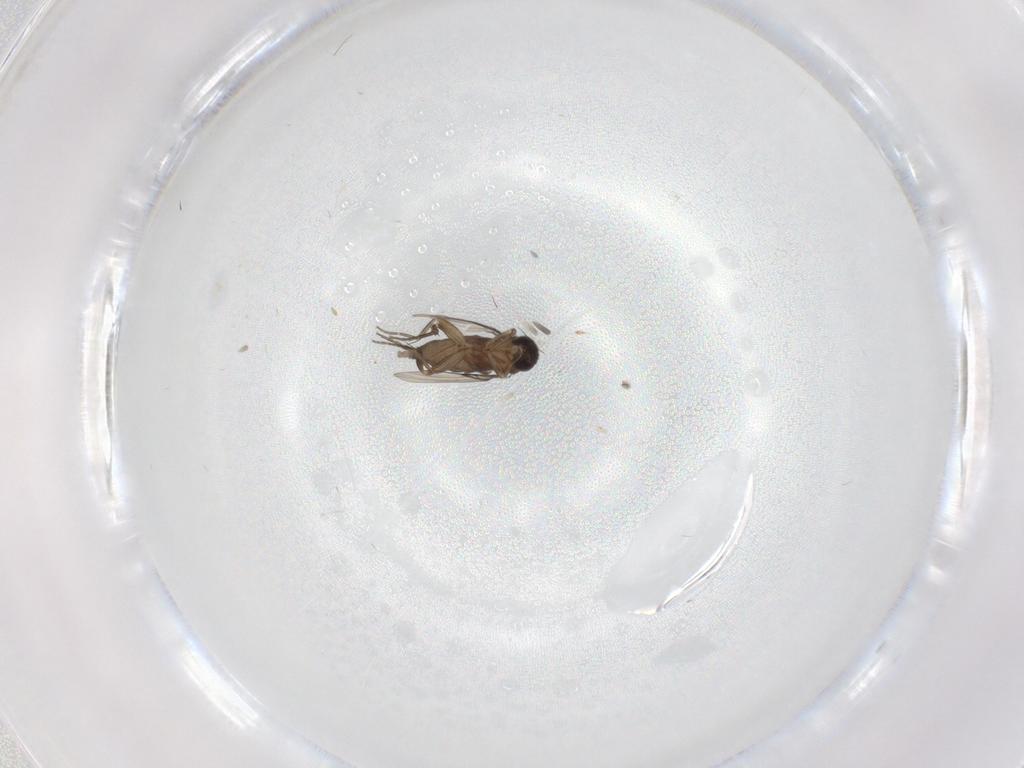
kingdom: Animalia
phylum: Arthropoda
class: Insecta
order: Diptera
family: Phoridae
